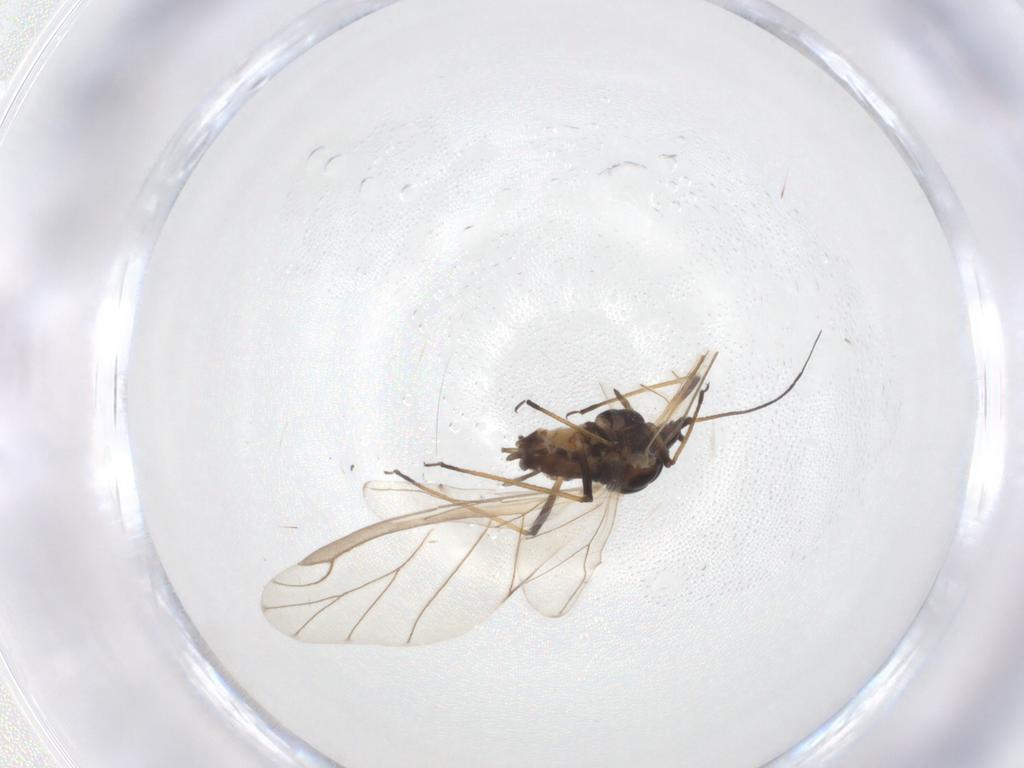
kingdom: Animalia
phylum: Arthropoda
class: Insecta
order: Hemiptera
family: Aphididae
